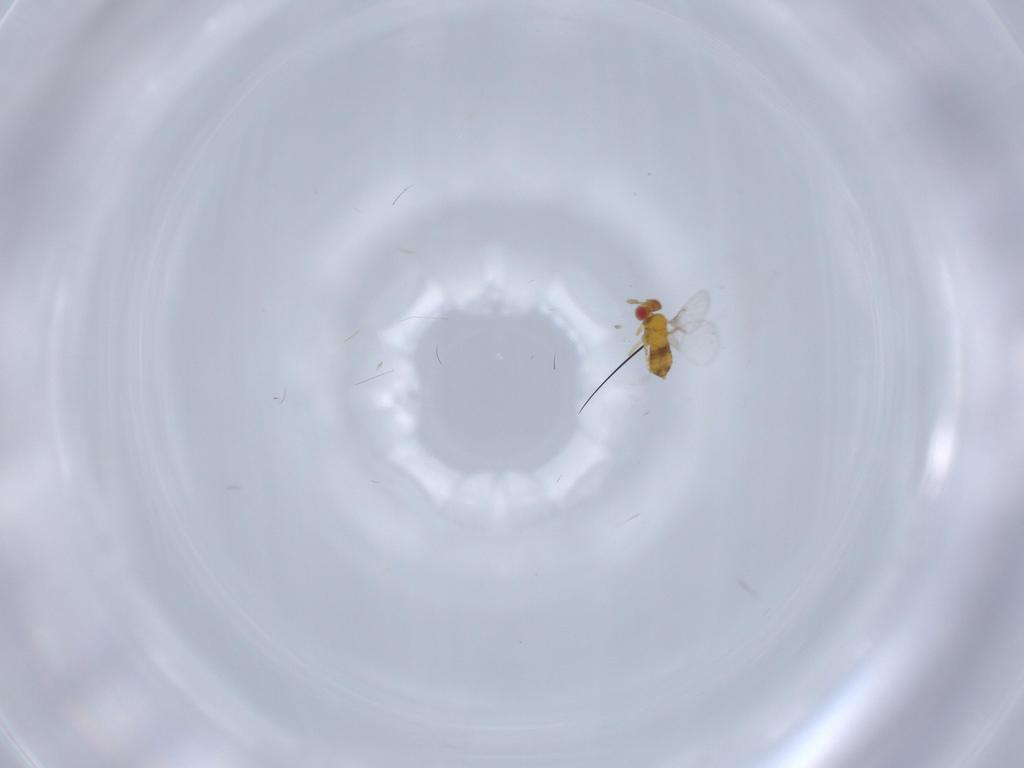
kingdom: Animalia
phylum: Arthropoda
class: Insecta
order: Hymenoptera
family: Trichogrammatidae
